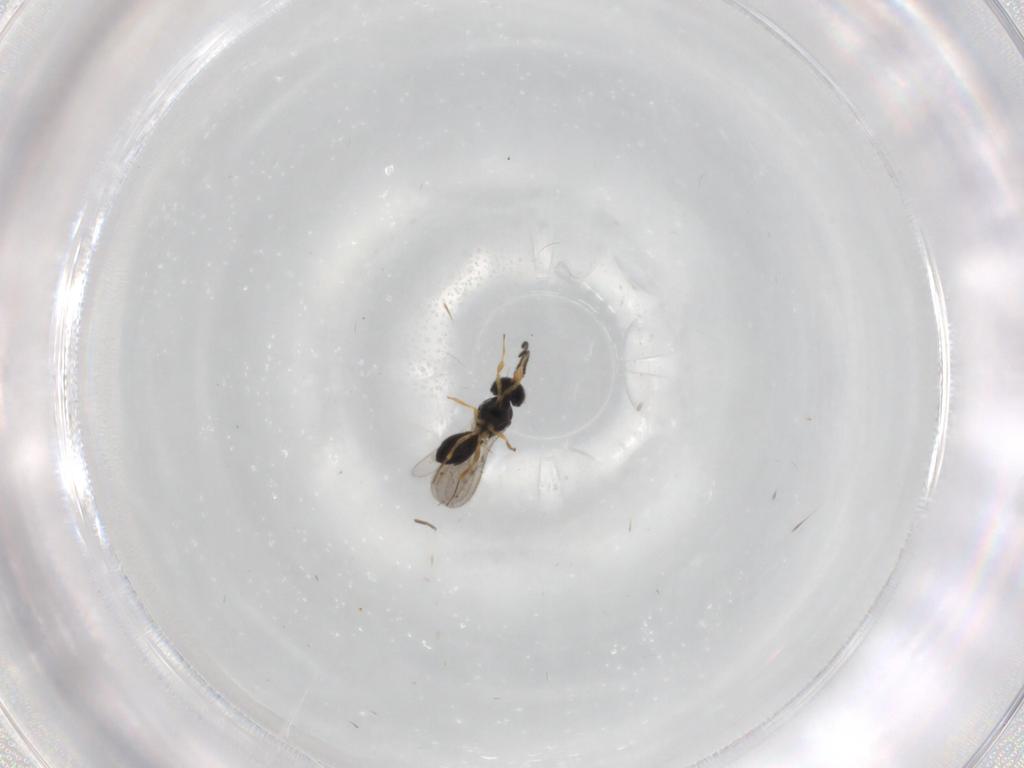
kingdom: Animalia
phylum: Arthropoda
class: Insecta
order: Hymenoptera
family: Scelionidae
